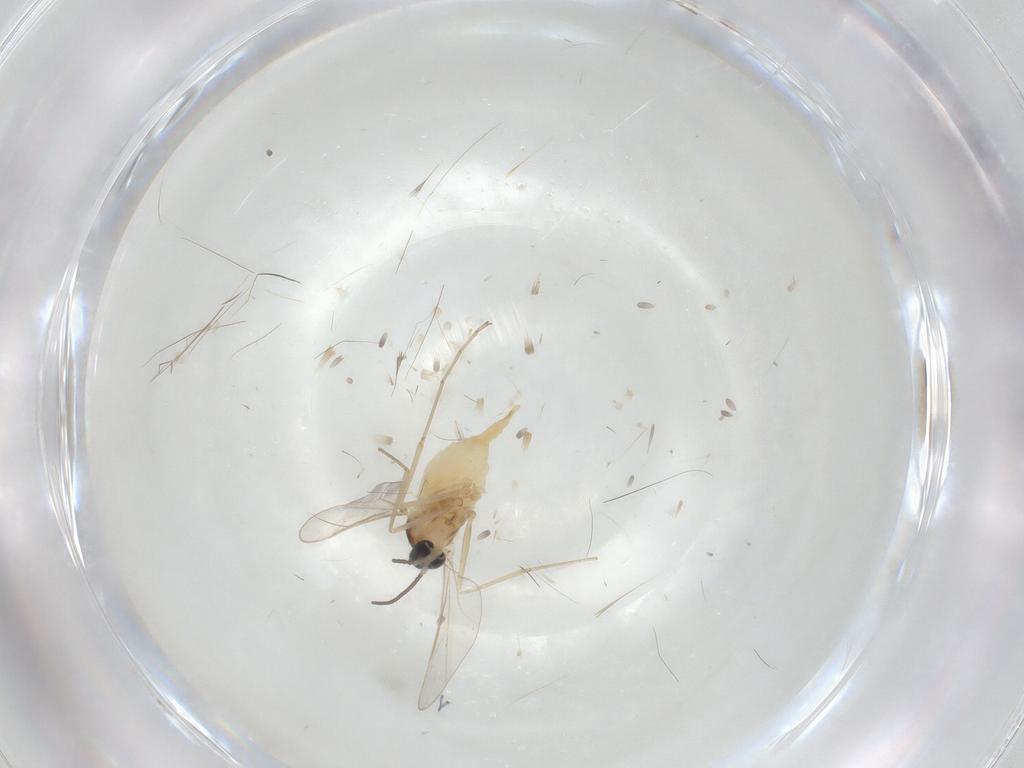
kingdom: Animalia
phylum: Arthropoda
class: Insecta
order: Diptera
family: Cecidomyiidae
